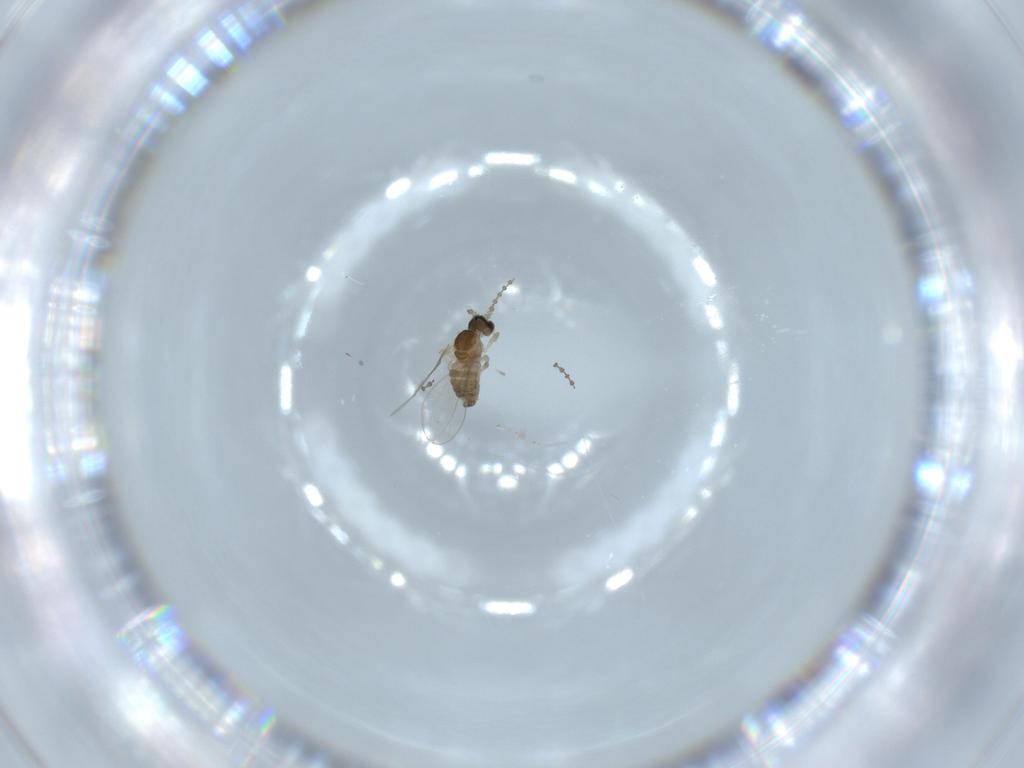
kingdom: Animalia
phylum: Arthropoda
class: Insecta
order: Diptera
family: Cecidomyiidae
